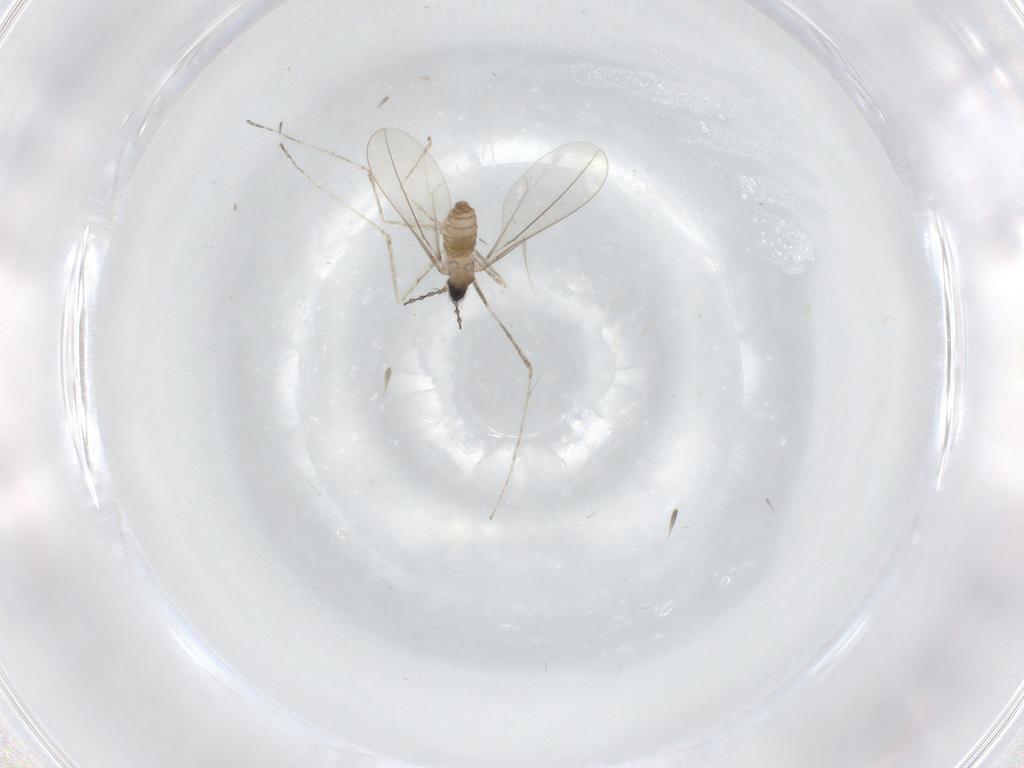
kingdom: Animalia
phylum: Arthropoda
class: Insecta
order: Diptera
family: Cecidomyiidae
